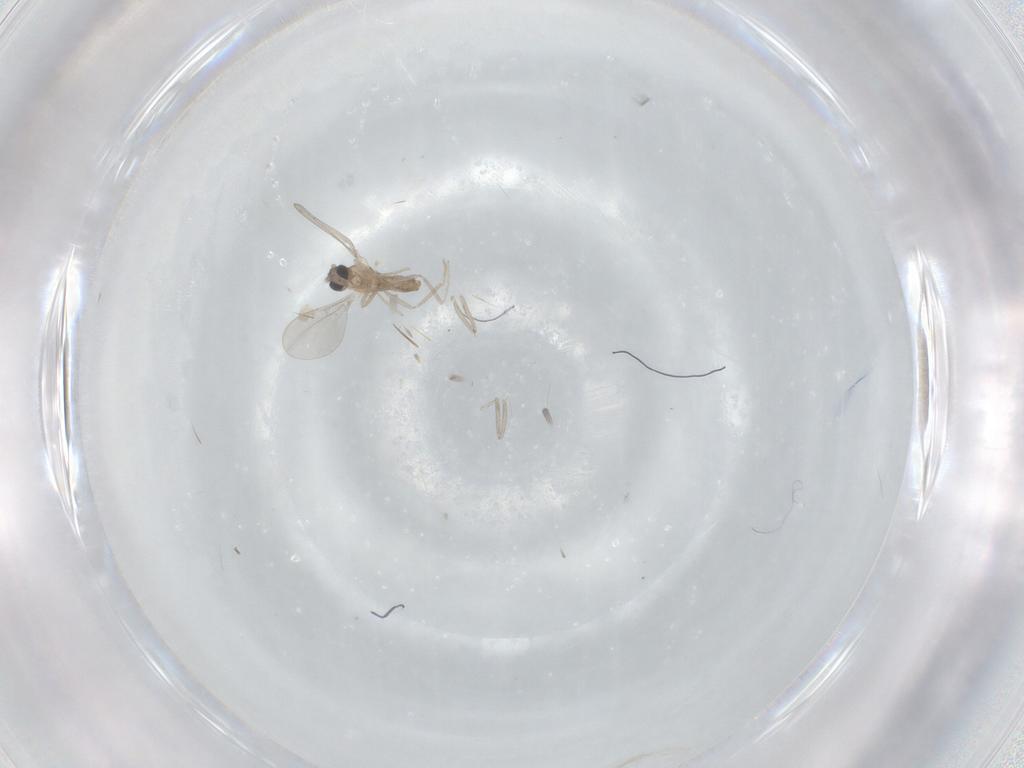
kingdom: Animalia
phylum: Arthropoda
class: Insecta
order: Diptera
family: Cecidomyiidae
